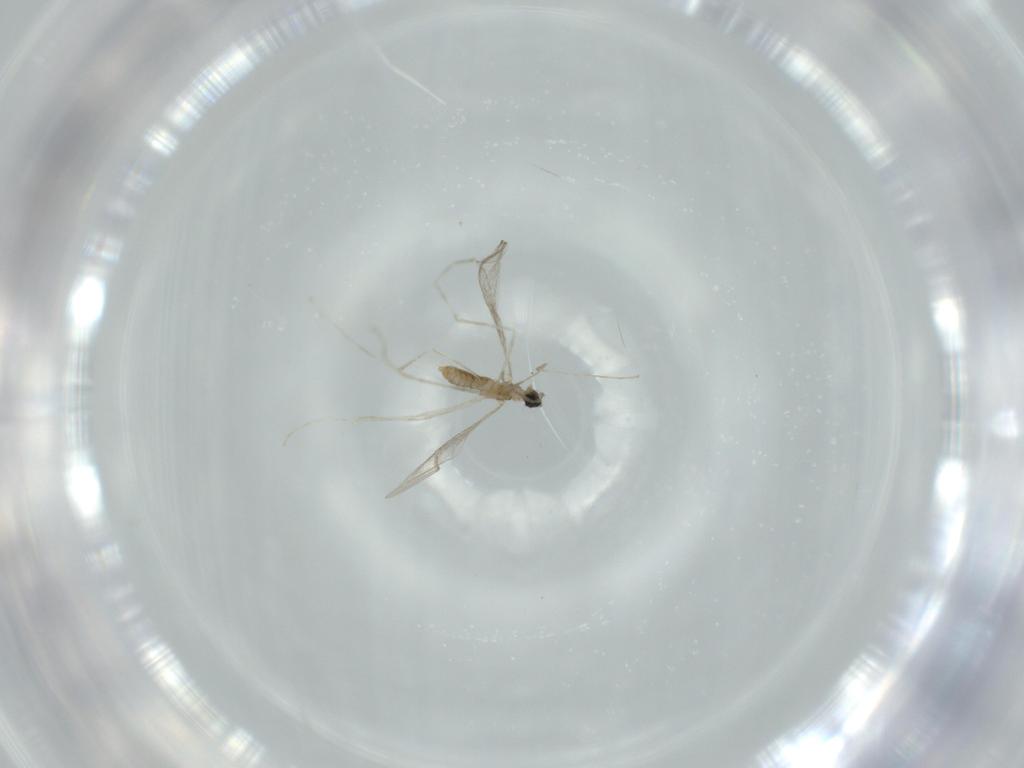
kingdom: Animalia
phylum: Arthropoda
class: Insecta
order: Diptera
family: Cecidomyiidae
